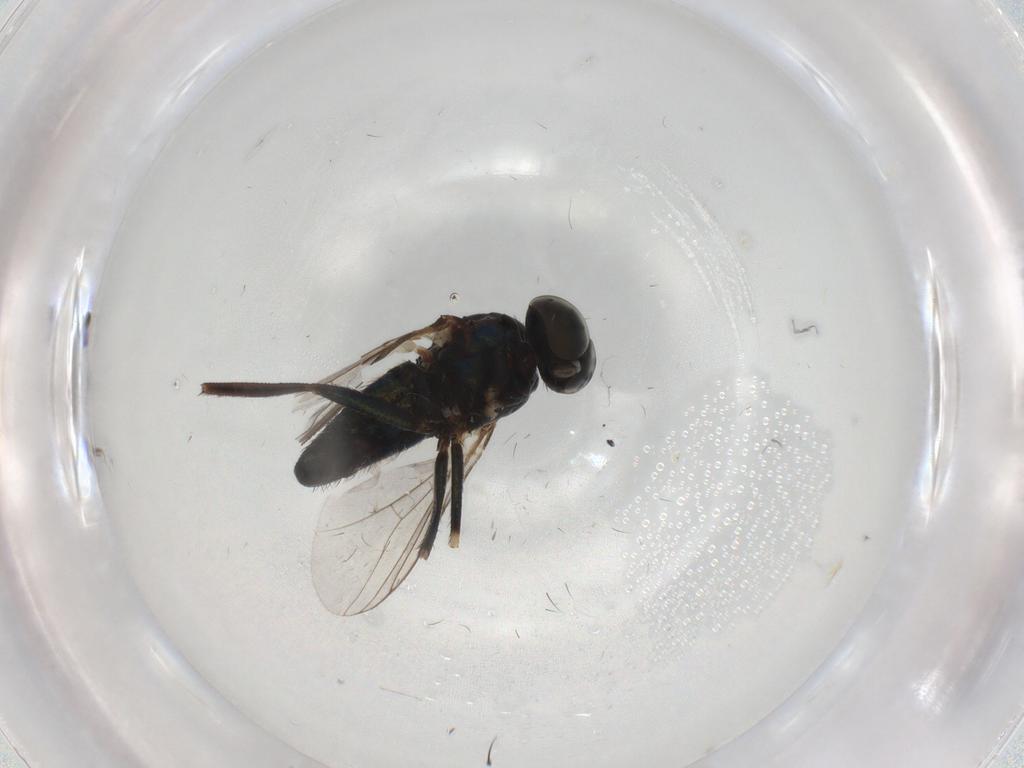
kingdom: Animalia
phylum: Arthropoda
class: Insecta
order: Diptera
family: Dolichopodidae
